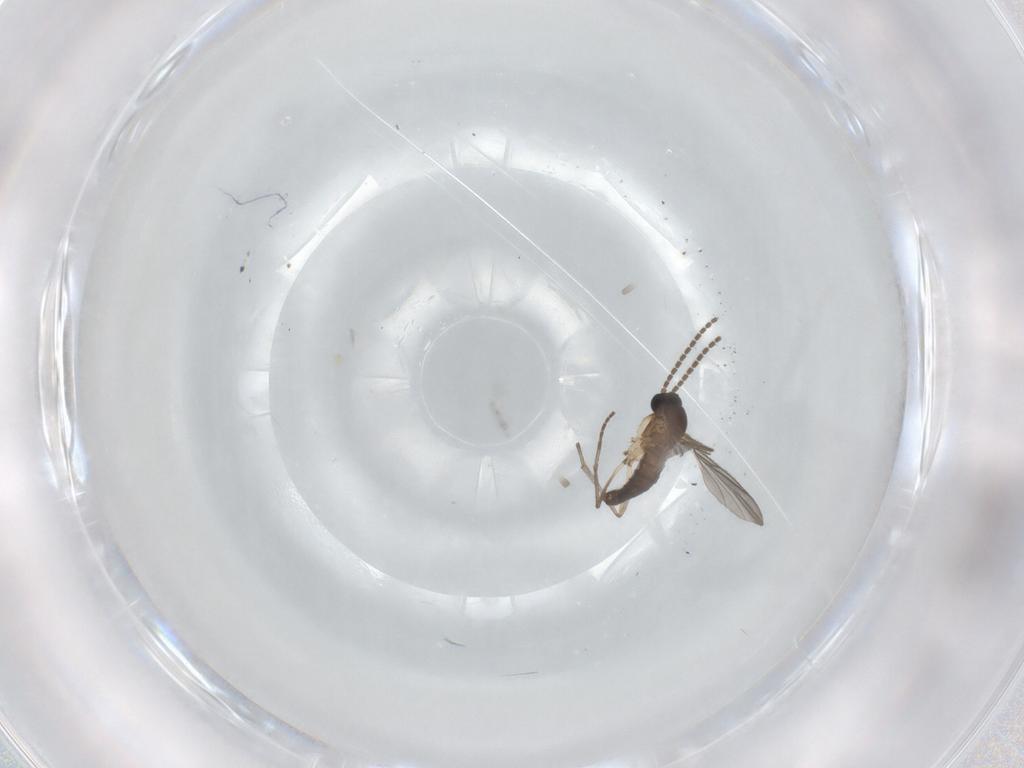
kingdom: Animalia
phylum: Arthropoda
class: Insecta
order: Diptera
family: Sciaridae
